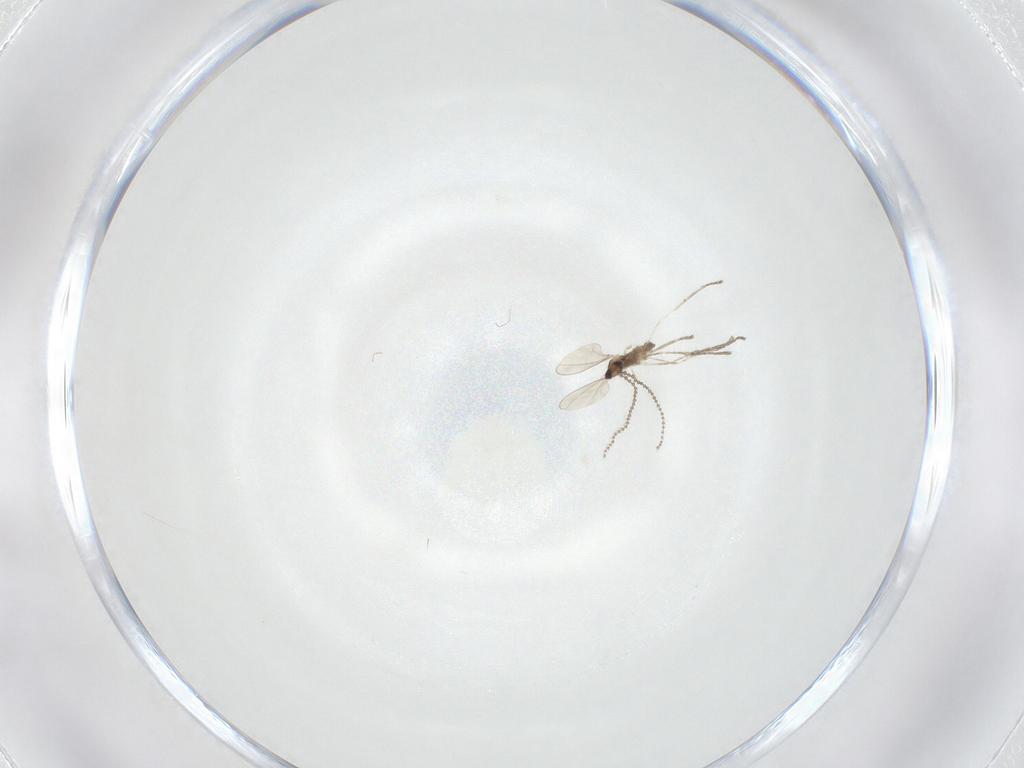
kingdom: Animalia
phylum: Arthropoda
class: Insecta
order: Diptera
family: Cecidomyiidae
